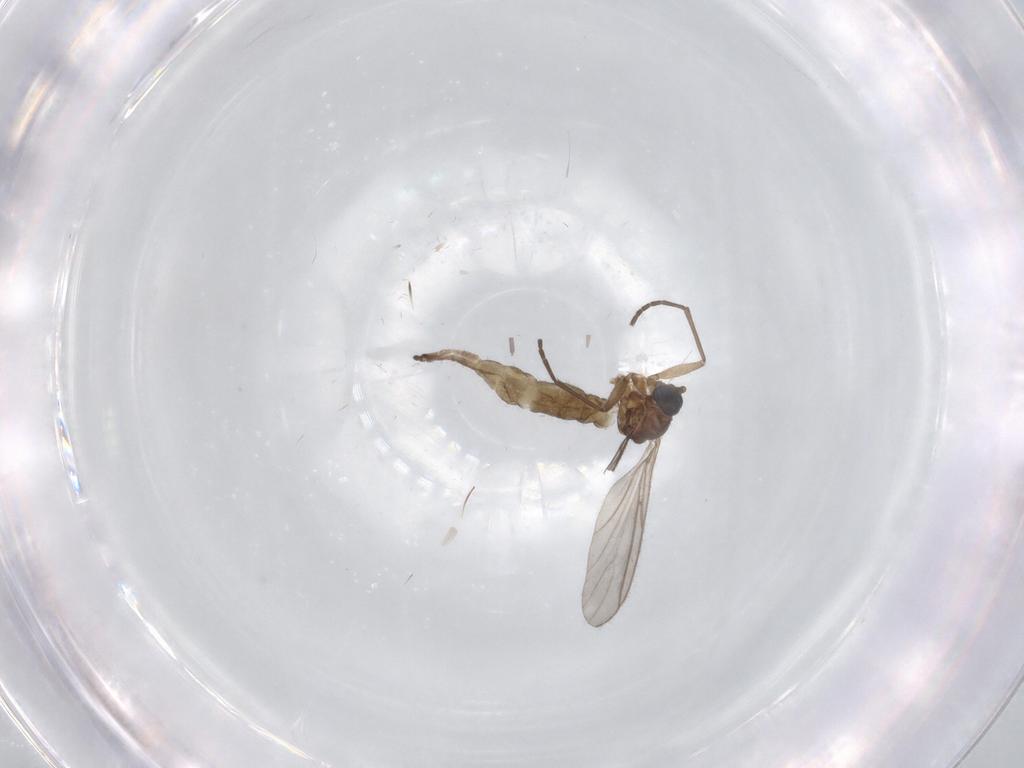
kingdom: Animalia
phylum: Arthropoda
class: Insecta
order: Diptera
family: Sciaridae
